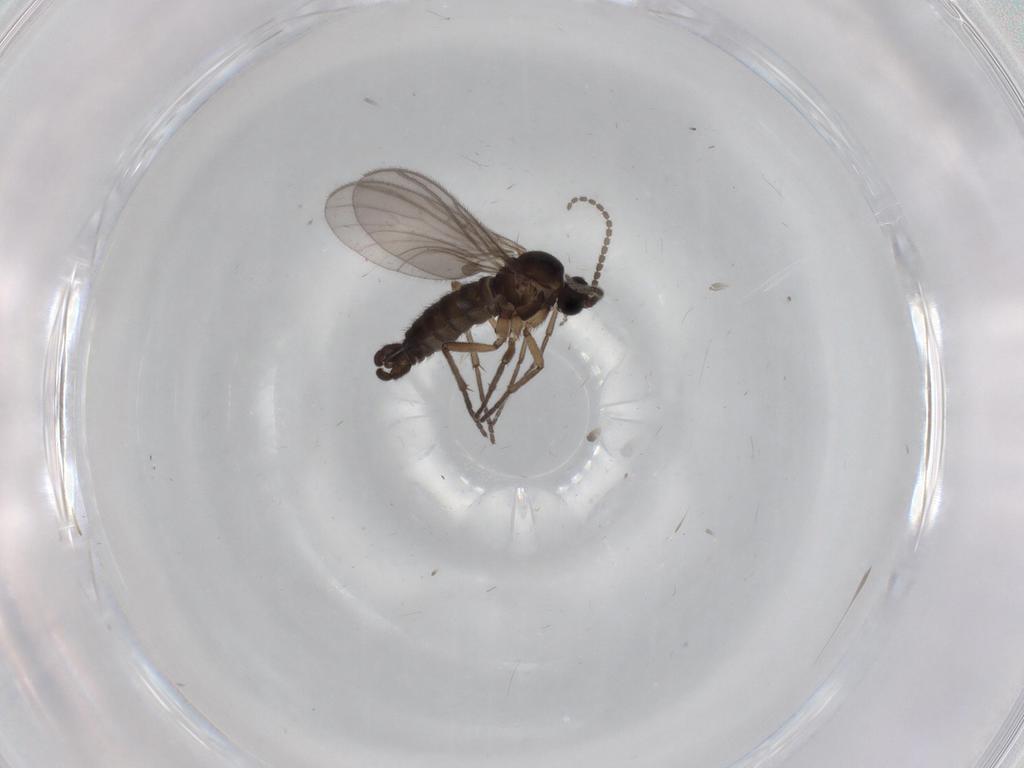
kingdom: Animalia
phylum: Arthropoda
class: Insecta
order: Diptera
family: Sciaridae
